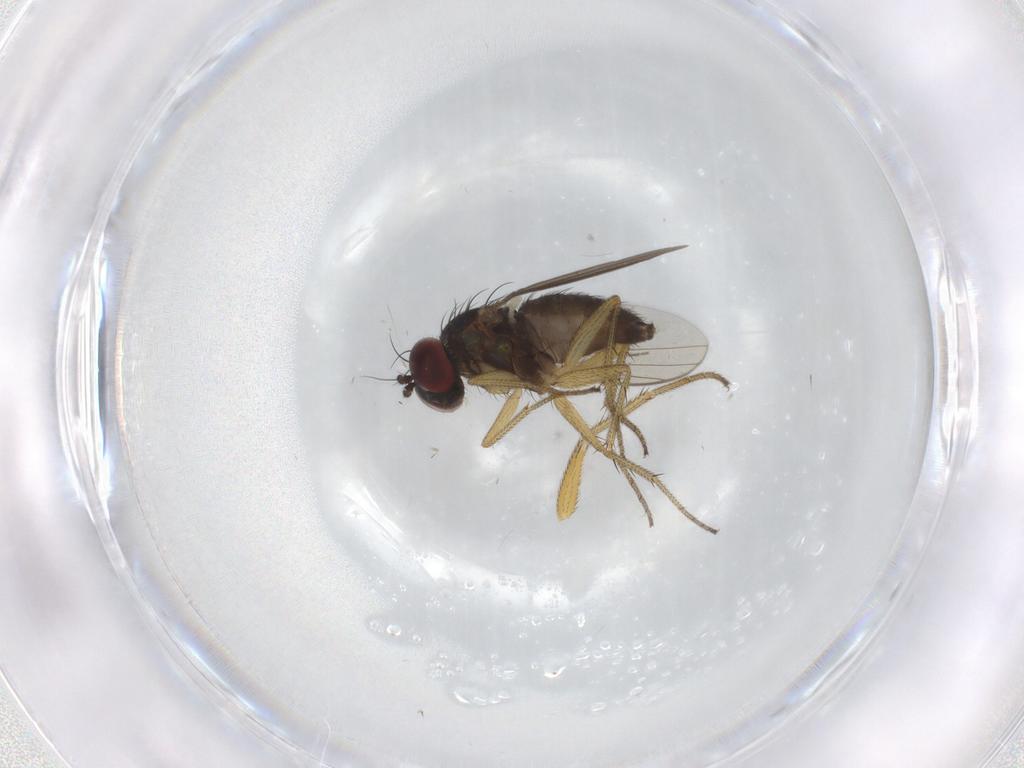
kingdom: Animalia
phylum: Arthropoda
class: Insecta
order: Diptera
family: Dolichopodidae
